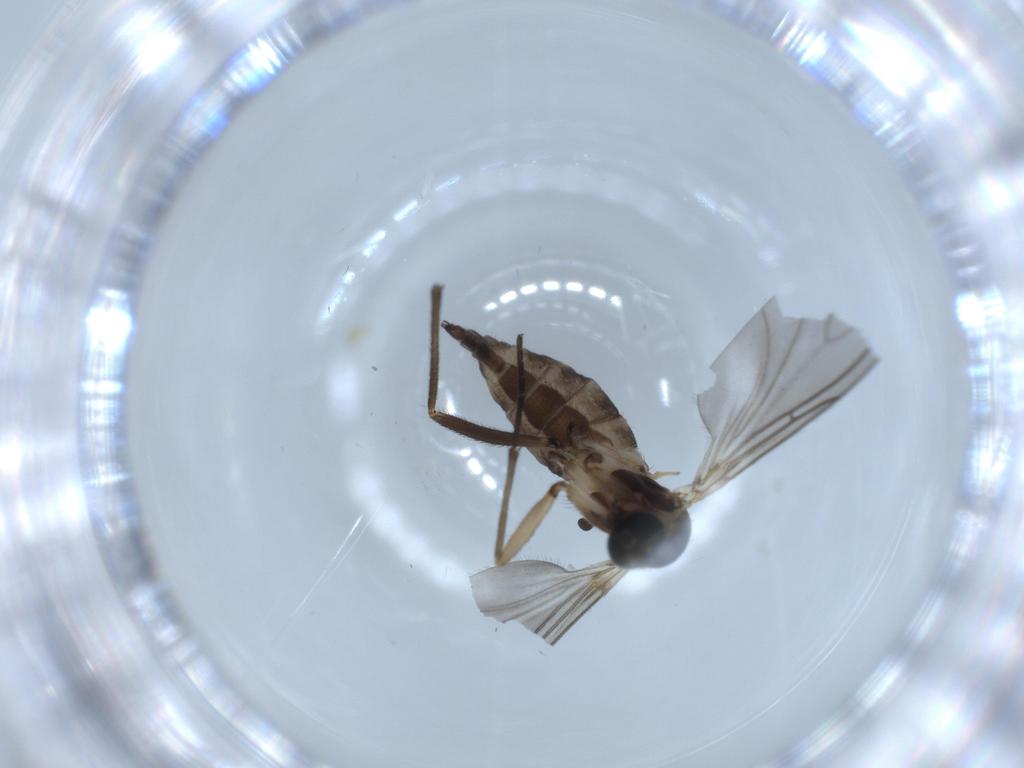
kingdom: Animalia
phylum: Arthropoda
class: Insecta
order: Diptera
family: Sciaridae
